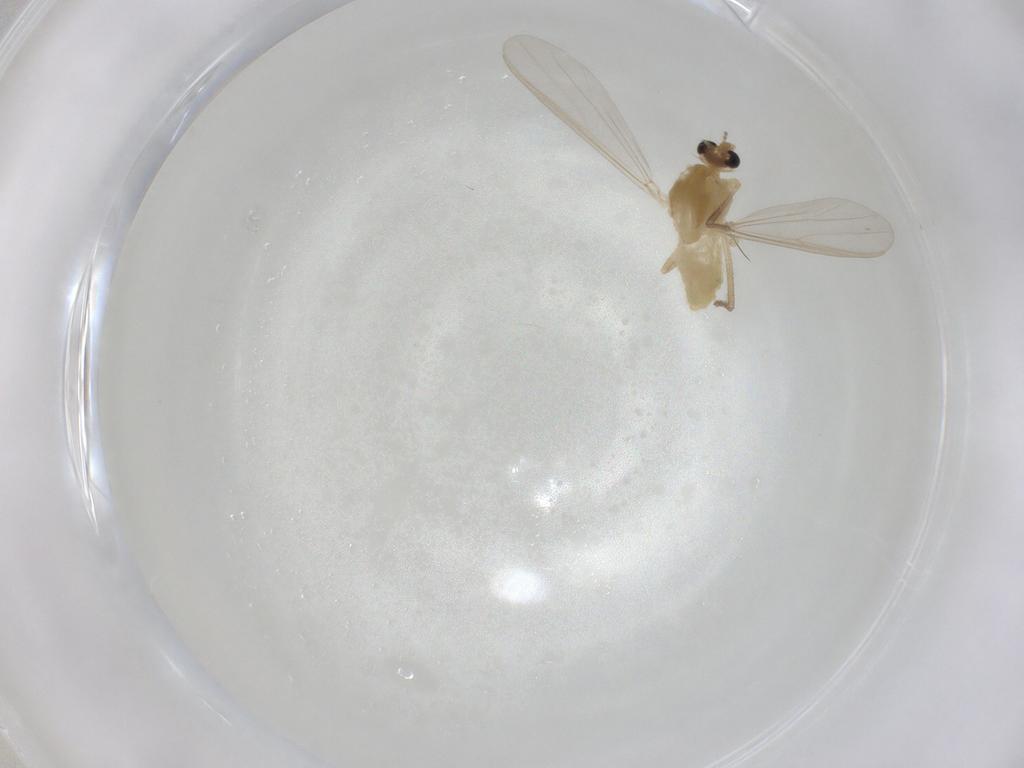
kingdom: Animalia
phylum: Arthropoda
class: Insecta
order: Diptera
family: Chironomidae
